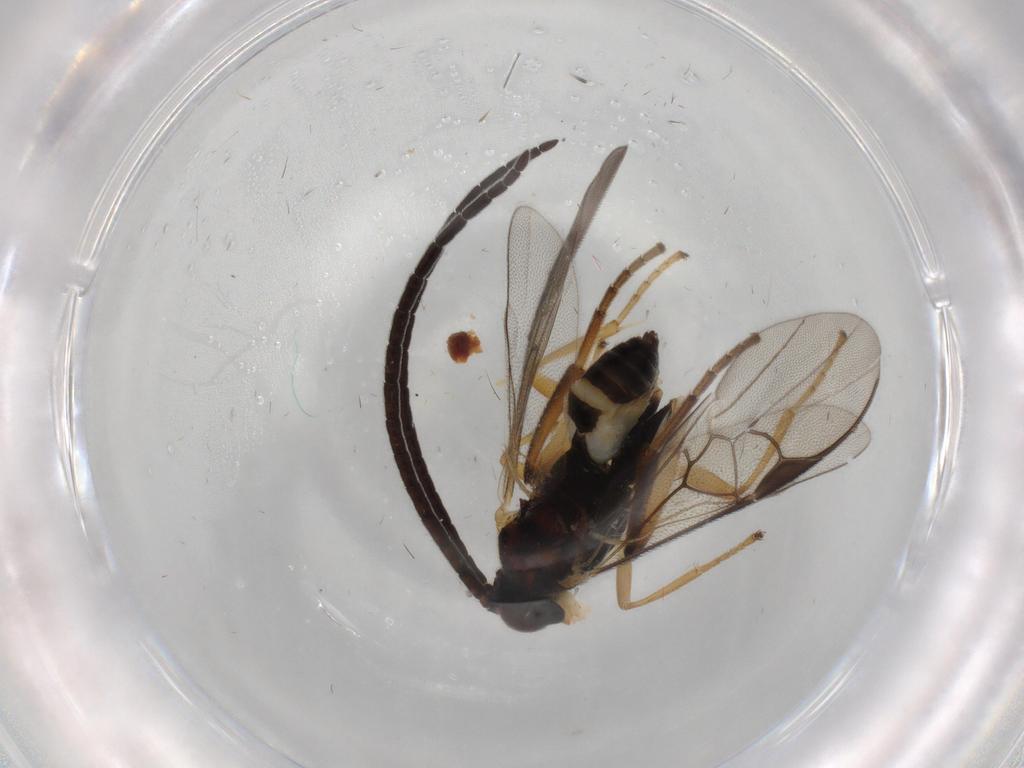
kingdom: Animalia
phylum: Arthropoda
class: Insecta
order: Hymenoptera
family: Braconidae
